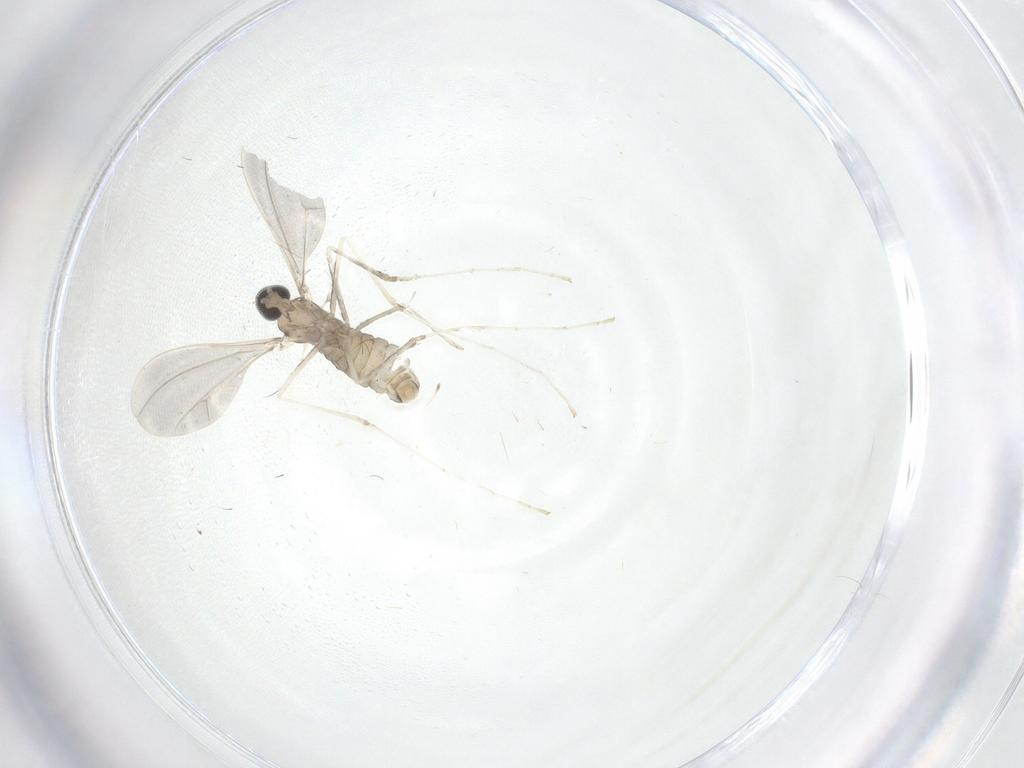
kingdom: Animalia
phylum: Arthropoda
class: Insecta
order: Diptera
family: Cecidomyiidae
